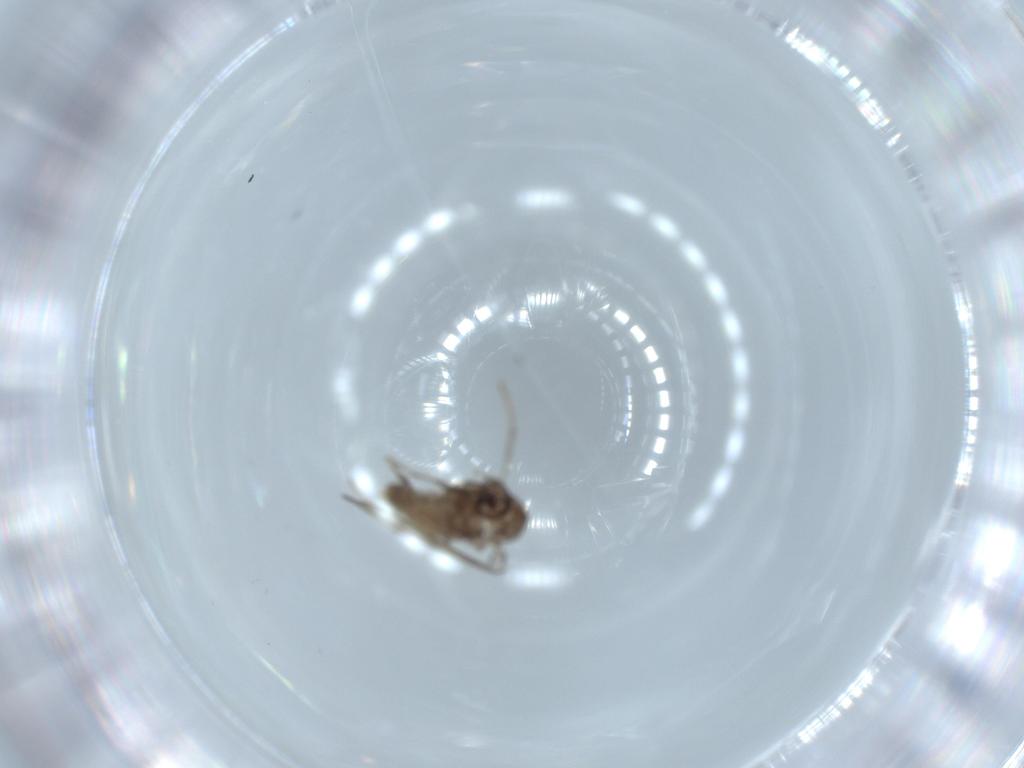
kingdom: Animalia
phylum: Arthropoda
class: Insecta
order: Diptera
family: Psychodidae
